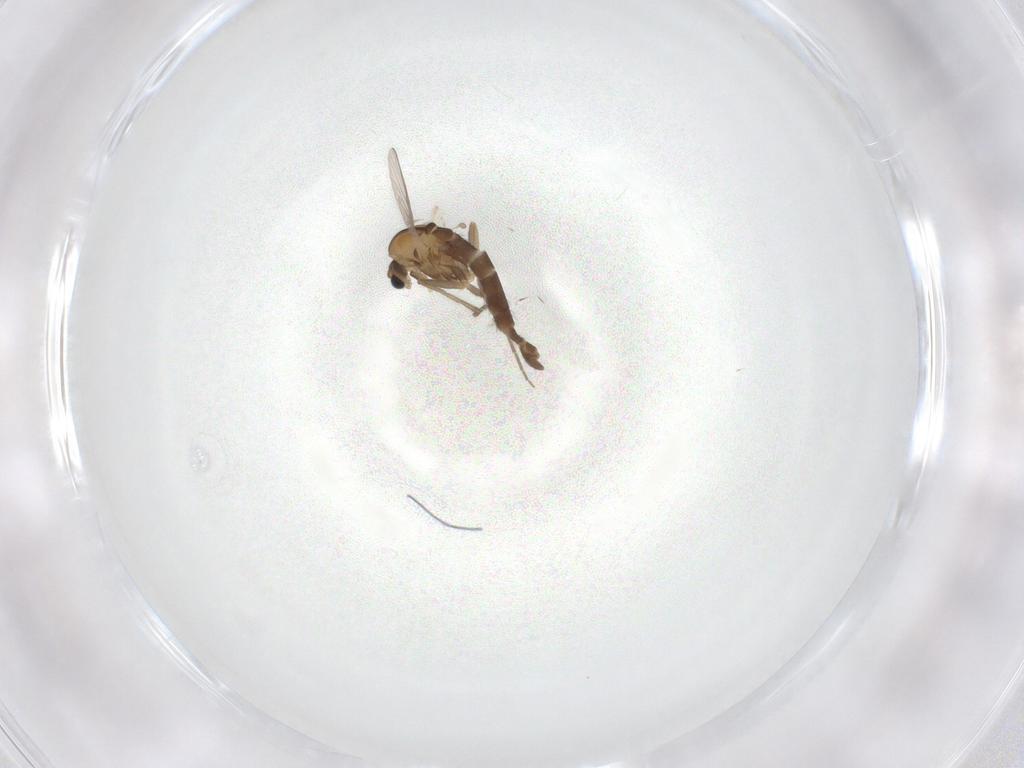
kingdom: Animalia
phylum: Arthropoda
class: Insecta
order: Diptera
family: Chironomidae
